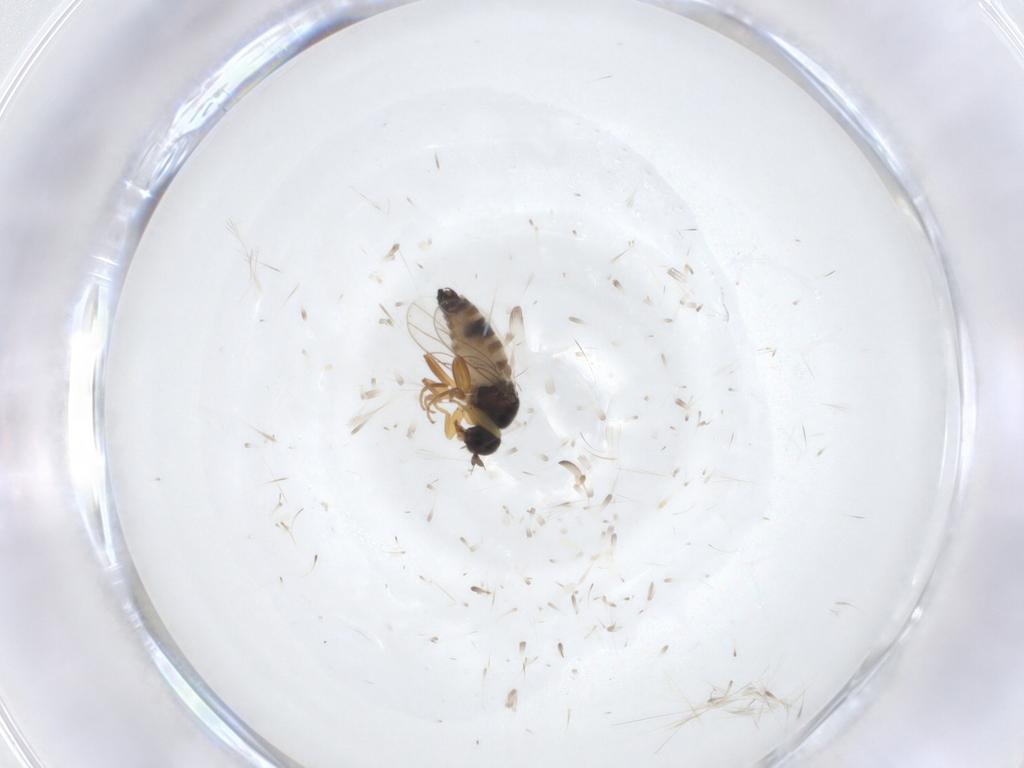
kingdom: Animalia
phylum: Arthropoda
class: Insecta
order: Diptera
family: Hybotidae
